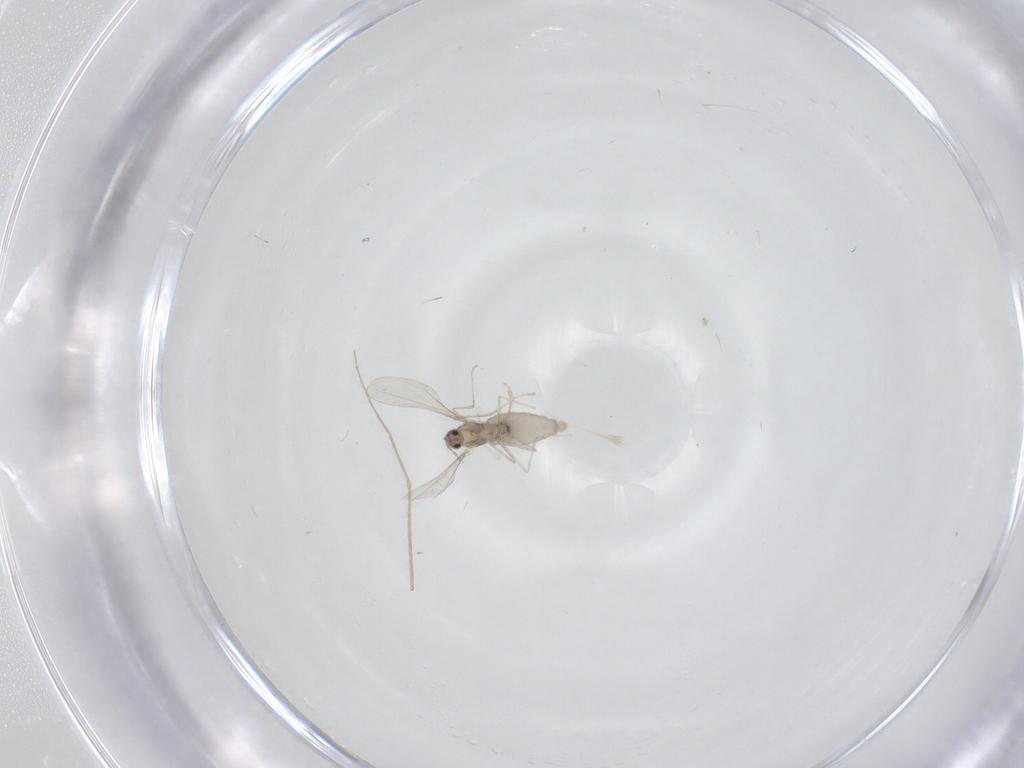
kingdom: Animalia
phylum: Arthropoda
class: Insecta
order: Diptera
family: Cecidomyiidae
